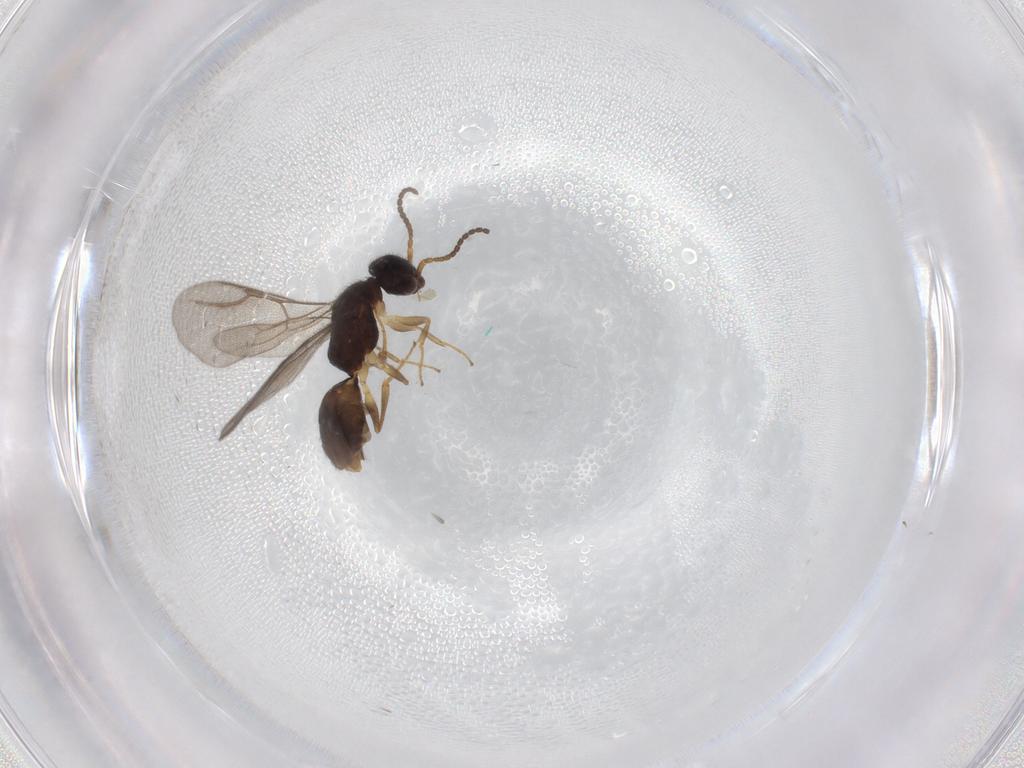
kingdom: Animalia
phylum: Arthropoda
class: Insecta
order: Hymenoptera
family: Bethylidae
